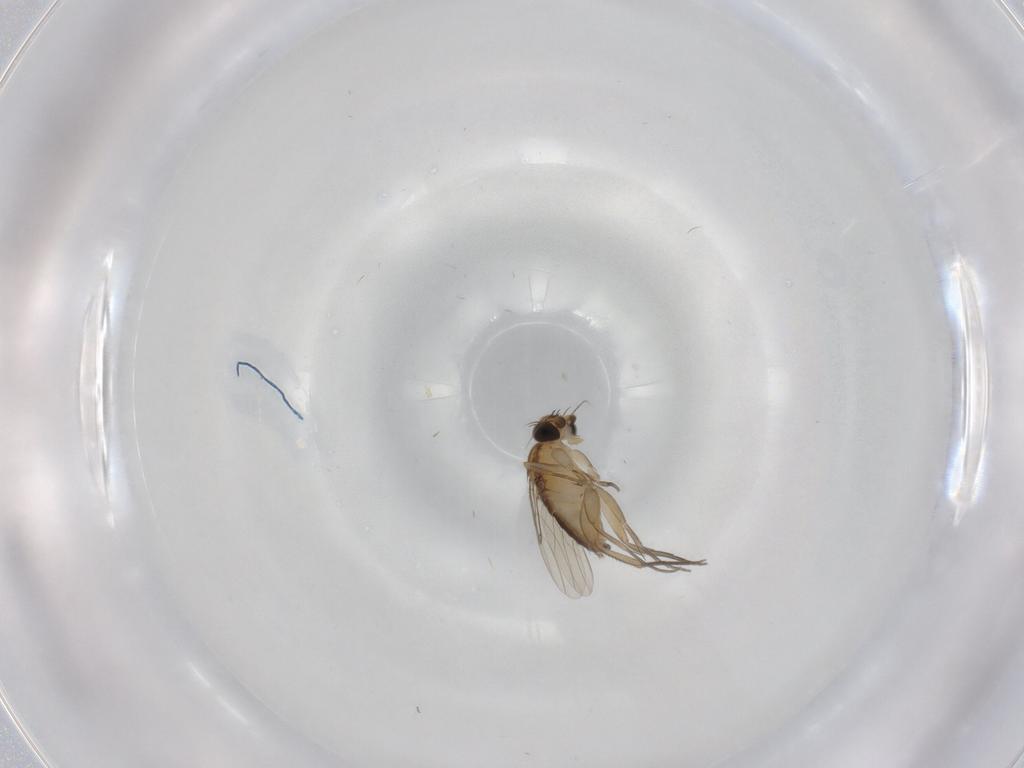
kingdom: Animalia
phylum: Arthropoda
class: Insecta
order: Diptera
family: Phoridae
